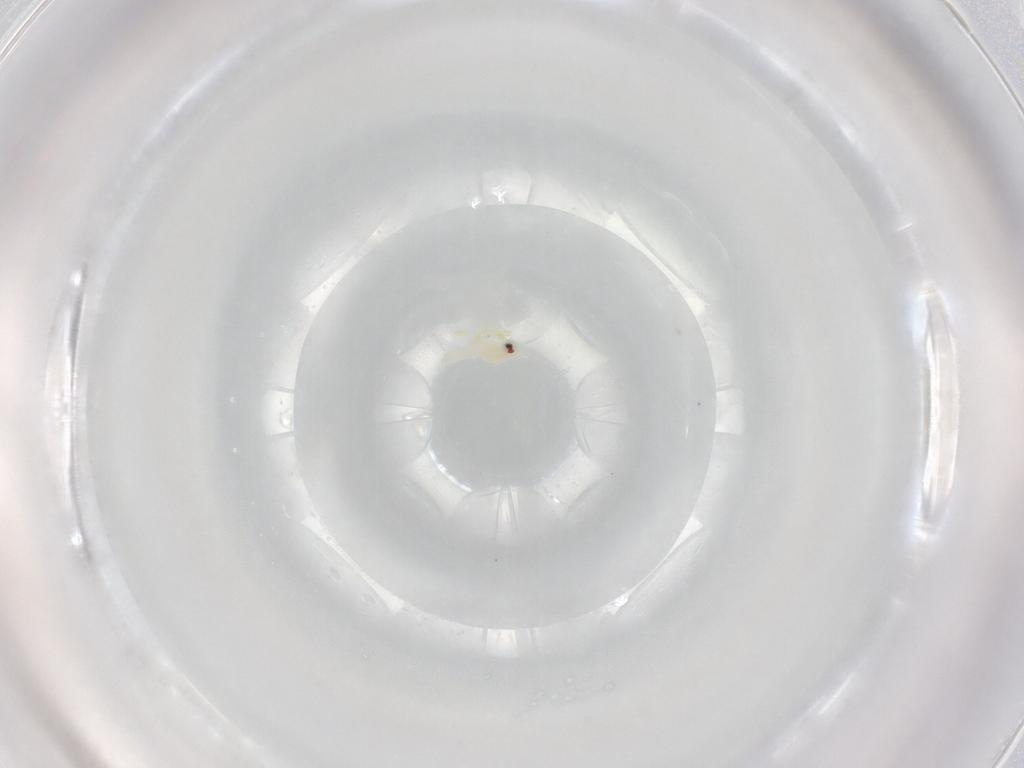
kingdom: Animalia
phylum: Arthropoda
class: Insecta
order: Hemiptera
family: Aleyrodidae
